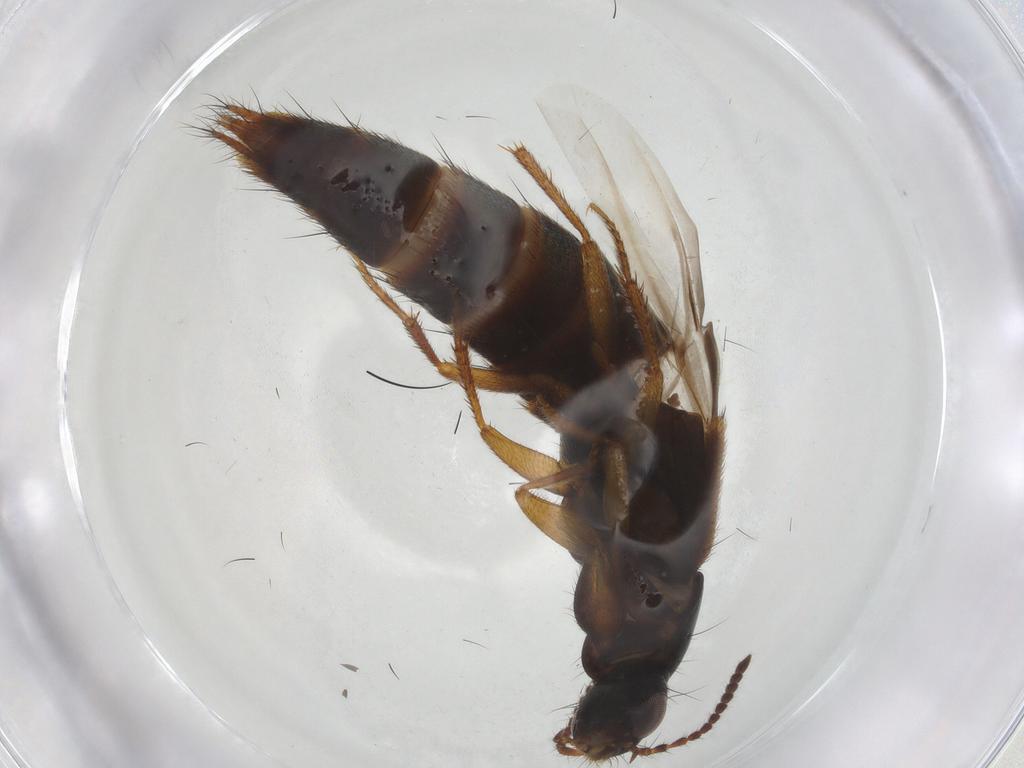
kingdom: Animalia
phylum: Arthropoda
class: Insecta
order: Coleoptera
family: Staphylinidae
